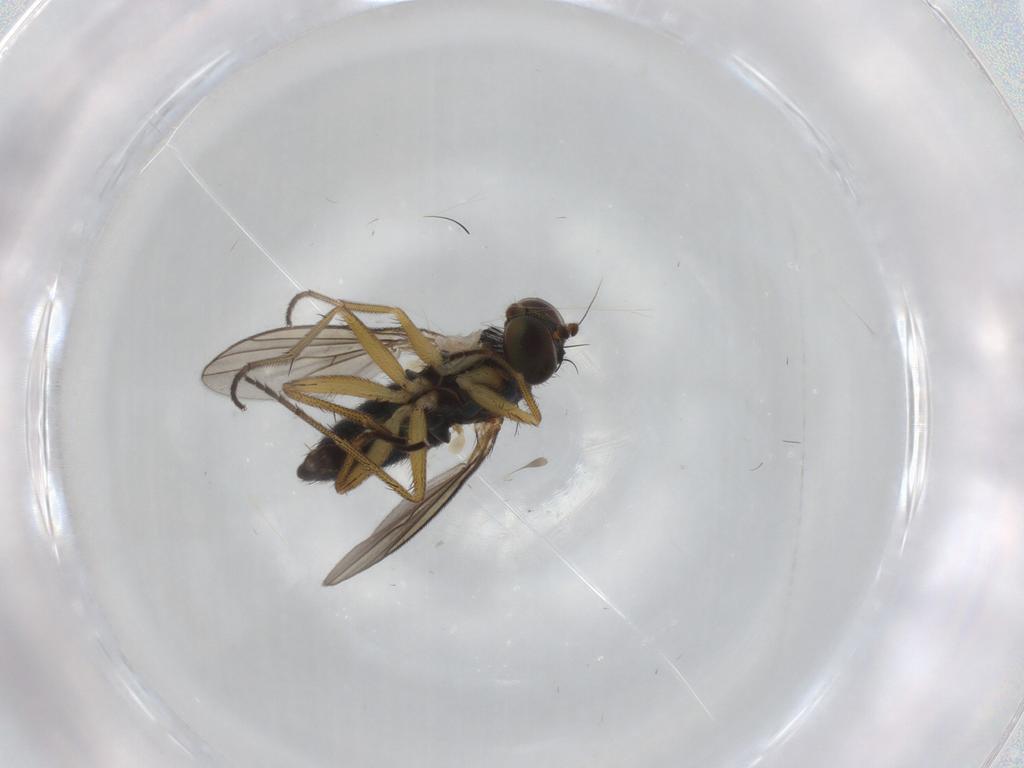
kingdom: Animalia
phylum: Arthropoda
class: Insecta
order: Diptera
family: Dolichopodidae
